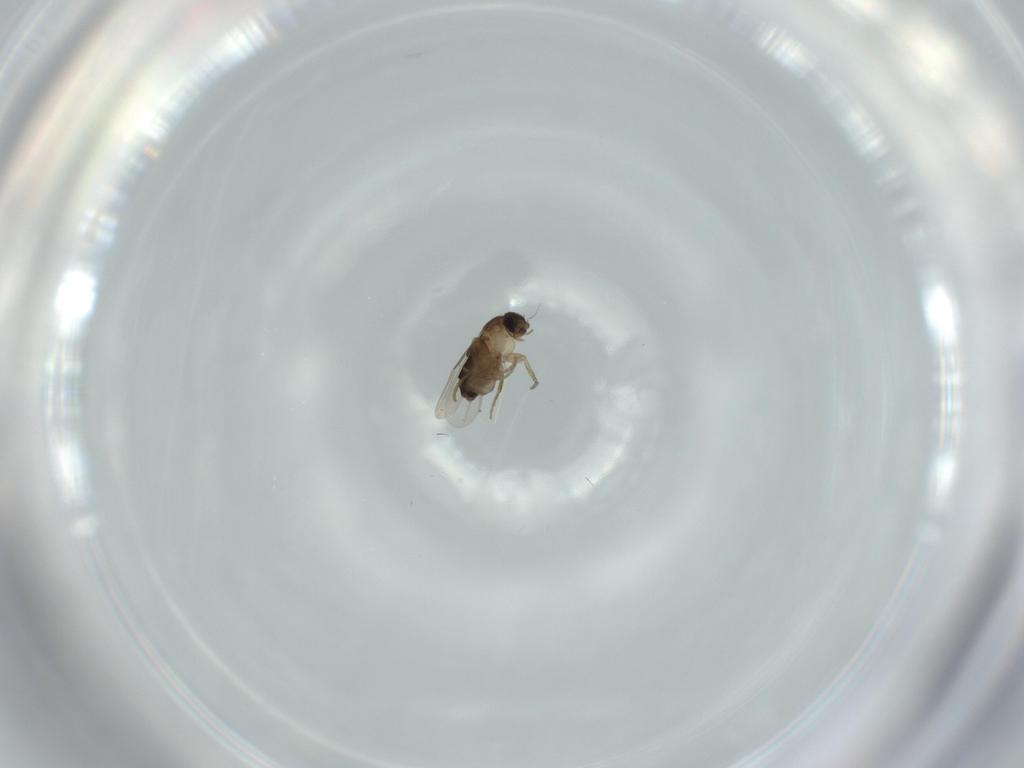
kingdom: Animalia
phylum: Arthropoda
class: Insecta
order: Diptera
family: Phoridae
